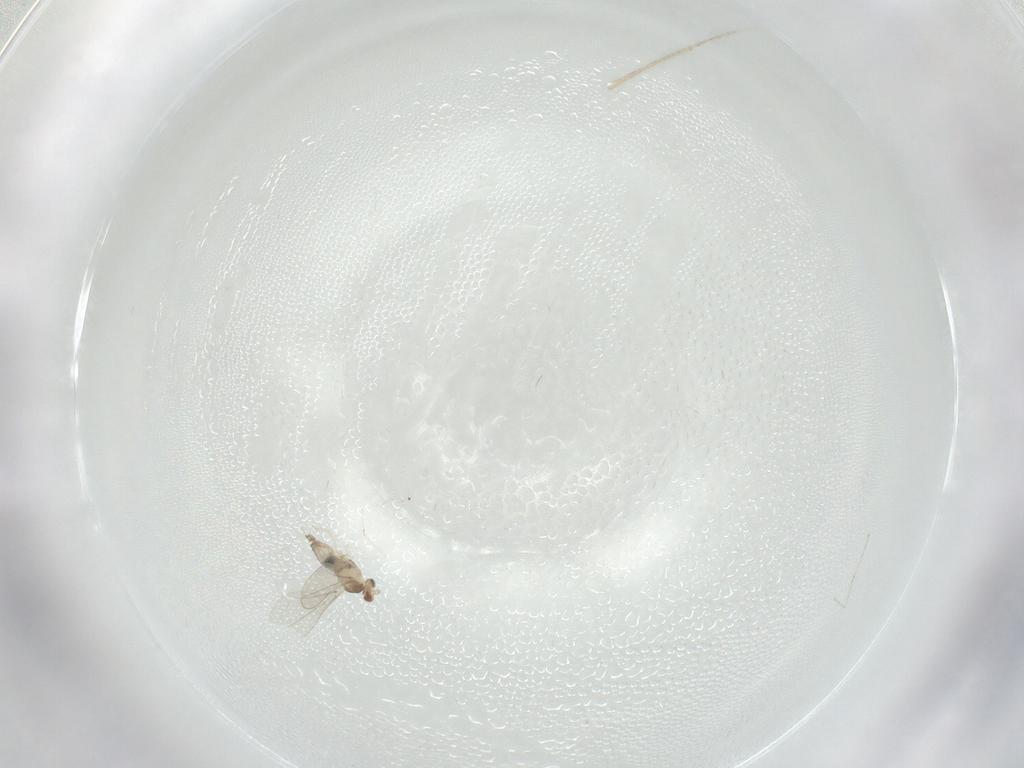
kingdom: Animalia
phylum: Arthropoda
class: Insecta
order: Diptera
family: Cecidomyiidae
